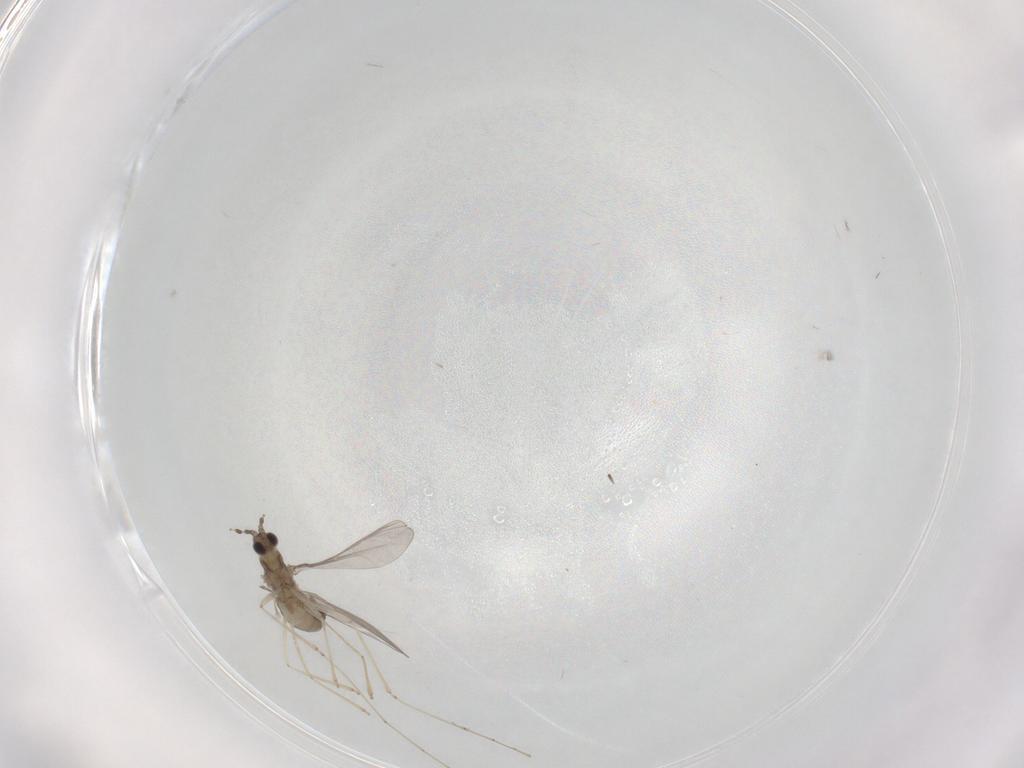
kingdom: Animalia
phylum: Arthropoda
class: Insecta
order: Diptera
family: Cecidomyiidae
